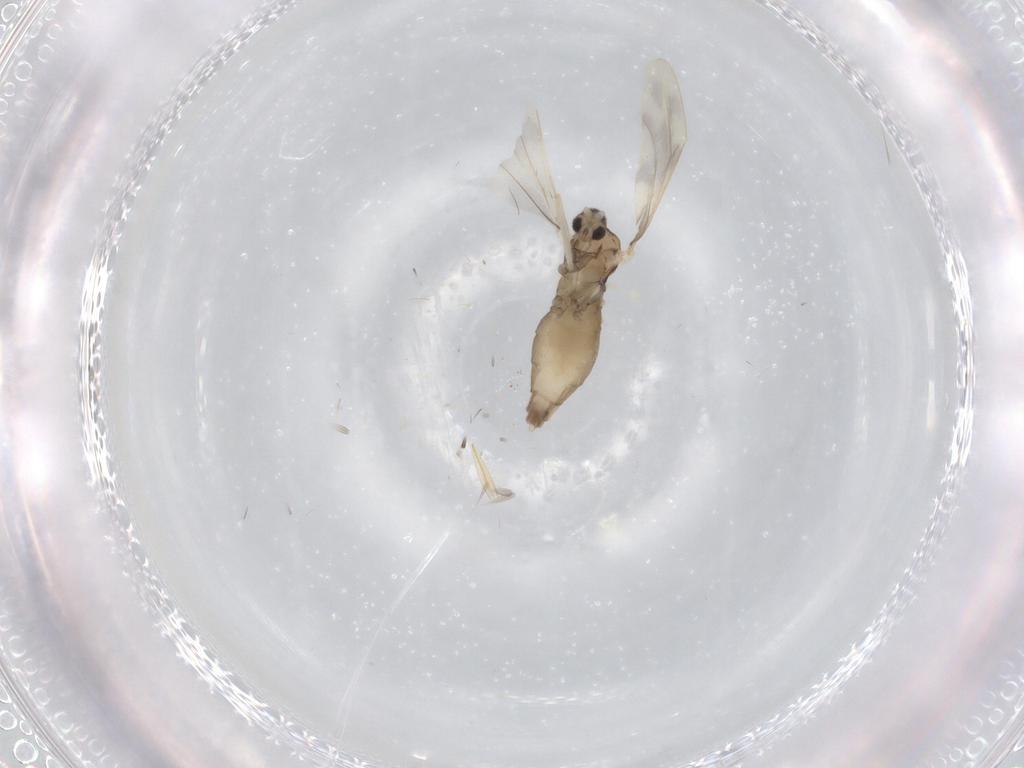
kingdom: Animalia
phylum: Arthropoda
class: Insecta
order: Diptera
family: Cecidomyiidae
